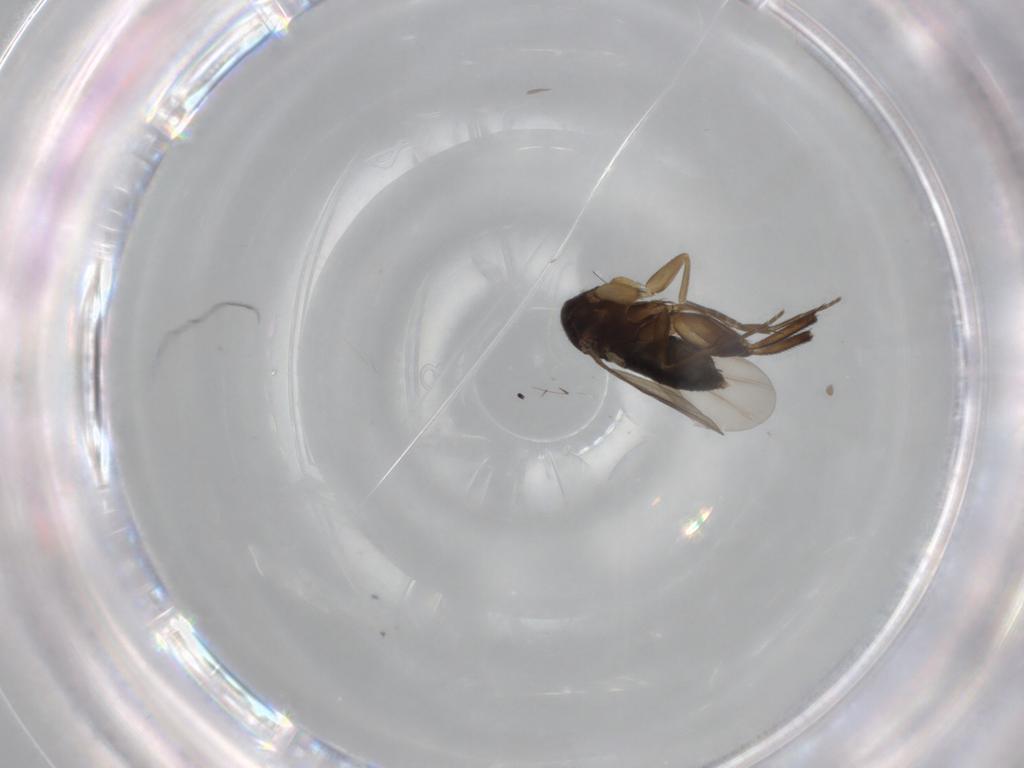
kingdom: Animalia
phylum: Arthropoda
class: Insecta
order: Diptera
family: Phoridae
